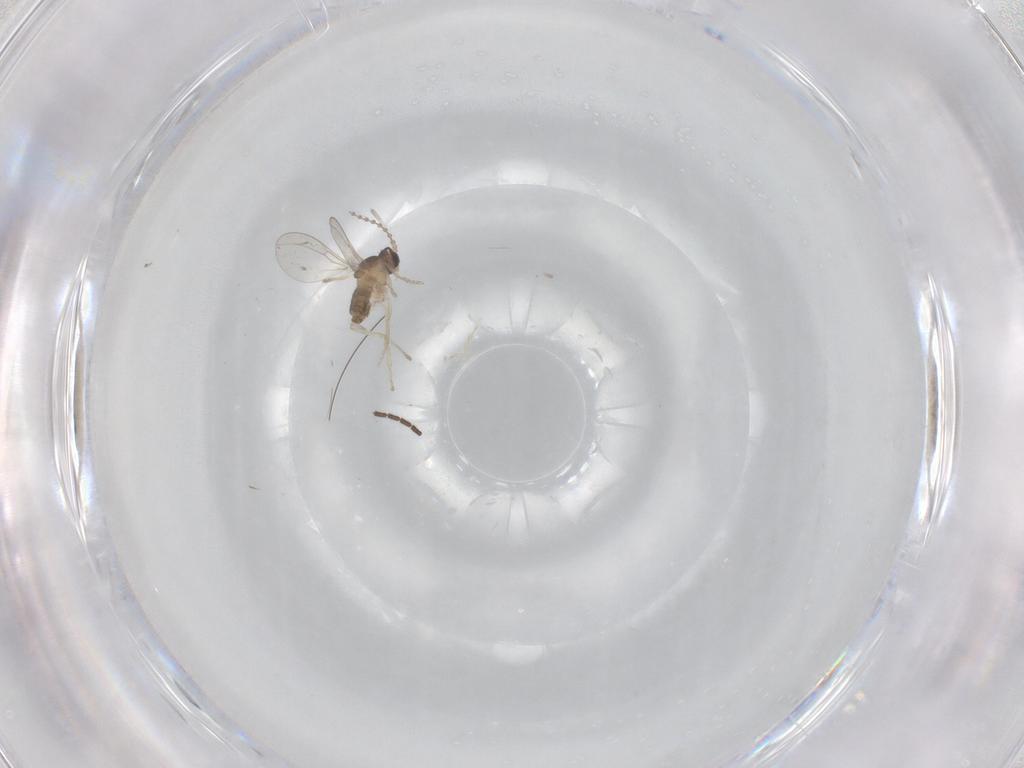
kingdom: Animalia
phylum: Arthropoda
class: Insecta
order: Diptera
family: Cecidomyiidae
